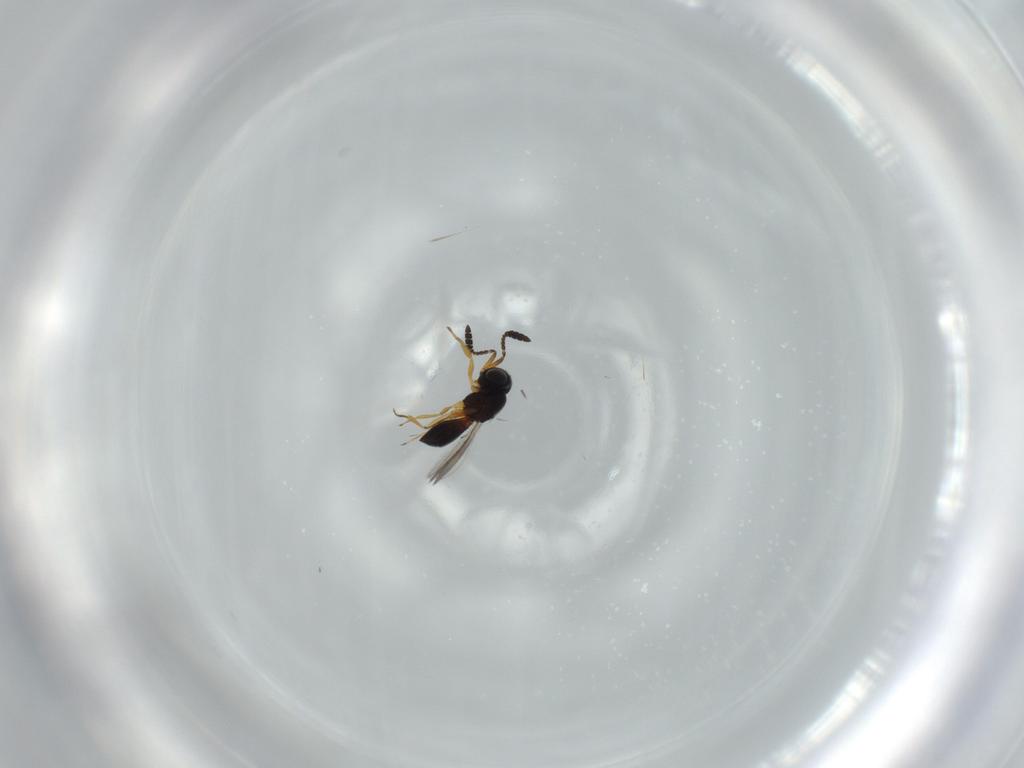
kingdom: Animalia
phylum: Arthropoda
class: Insecta
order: Hymenoptera
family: Scelionidae
